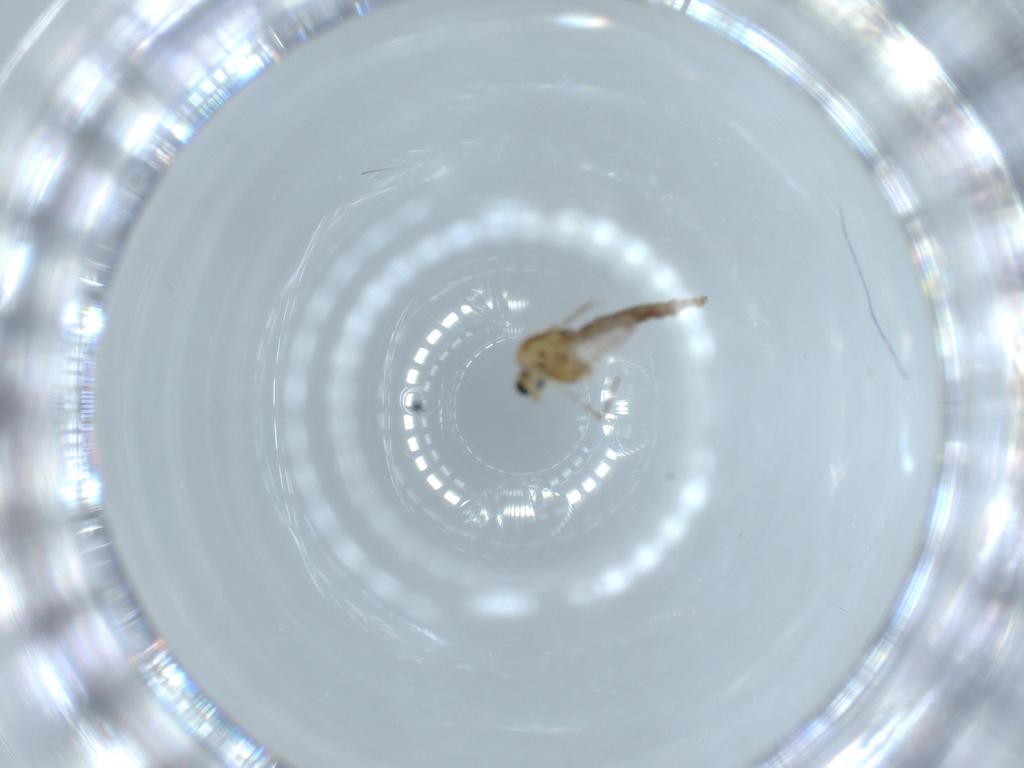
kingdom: Animalia
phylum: Arthropoda
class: Insecta
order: Diptera
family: Chironomidae
